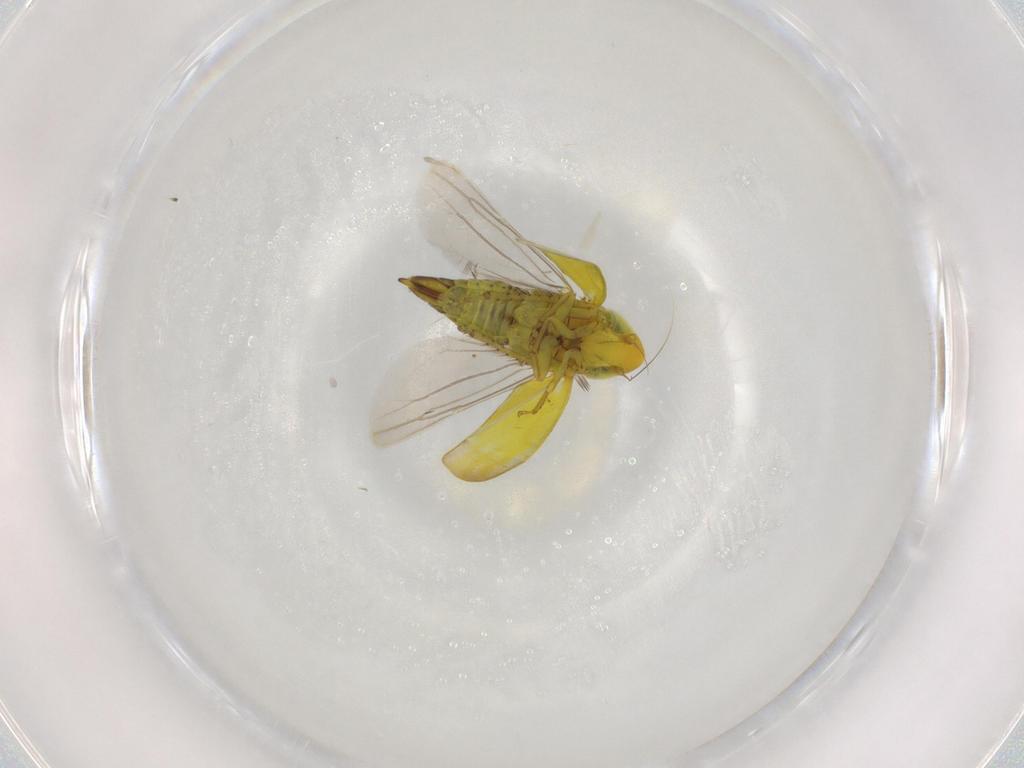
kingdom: Animalia
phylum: Arthropoda
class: Insecta
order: Hemiptera
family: Cicadellidae
